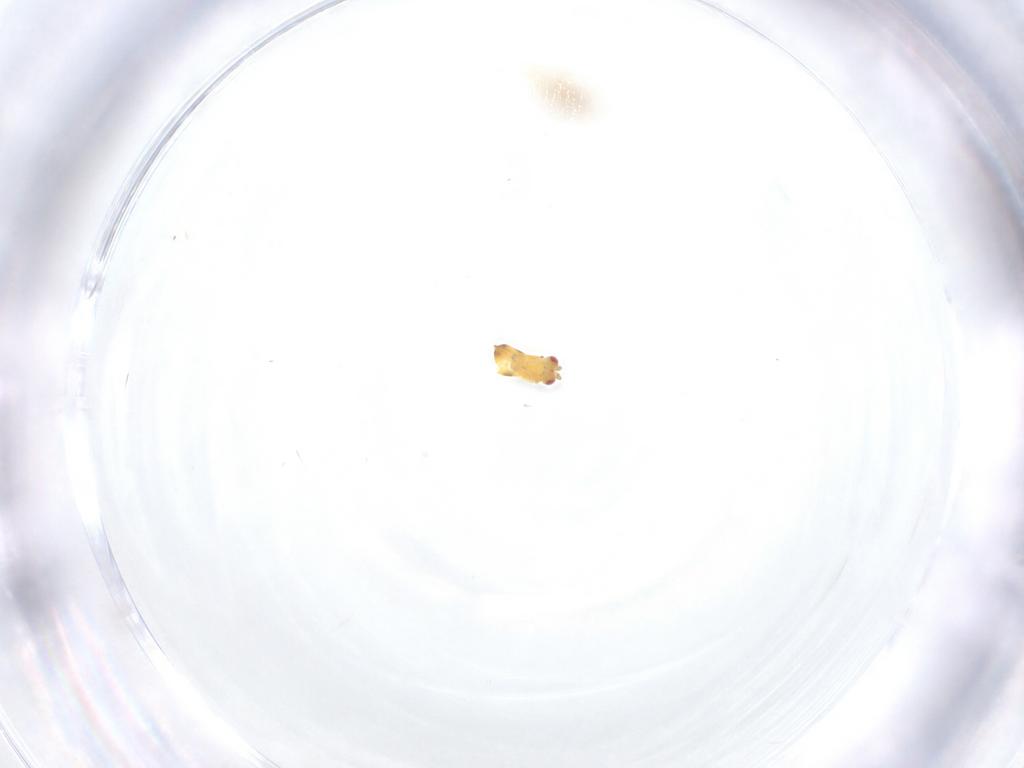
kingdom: Animalia
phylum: Arthropoda
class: Insecta
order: Hymenoptera
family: Trichogrammatidae
